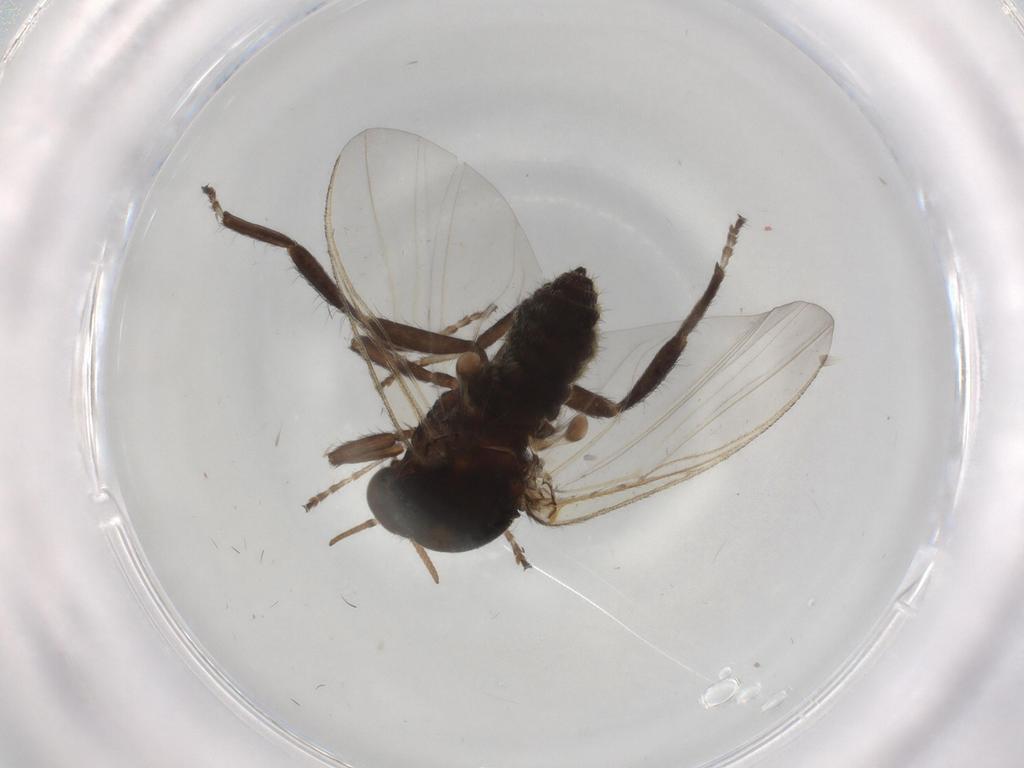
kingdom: Animalia
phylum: Arthropoda
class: Insecta
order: Diptera
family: Chironomidae
